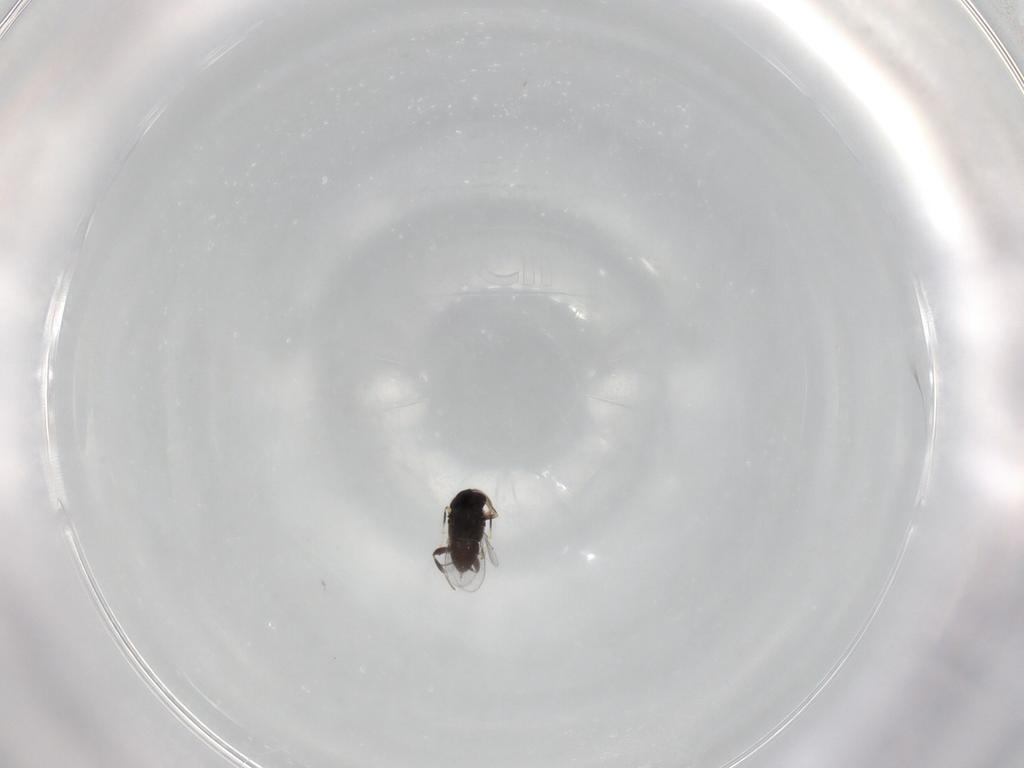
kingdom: Animalia
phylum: Arthropoda
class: Insecta
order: Hymenoptera
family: Encyrtidae
